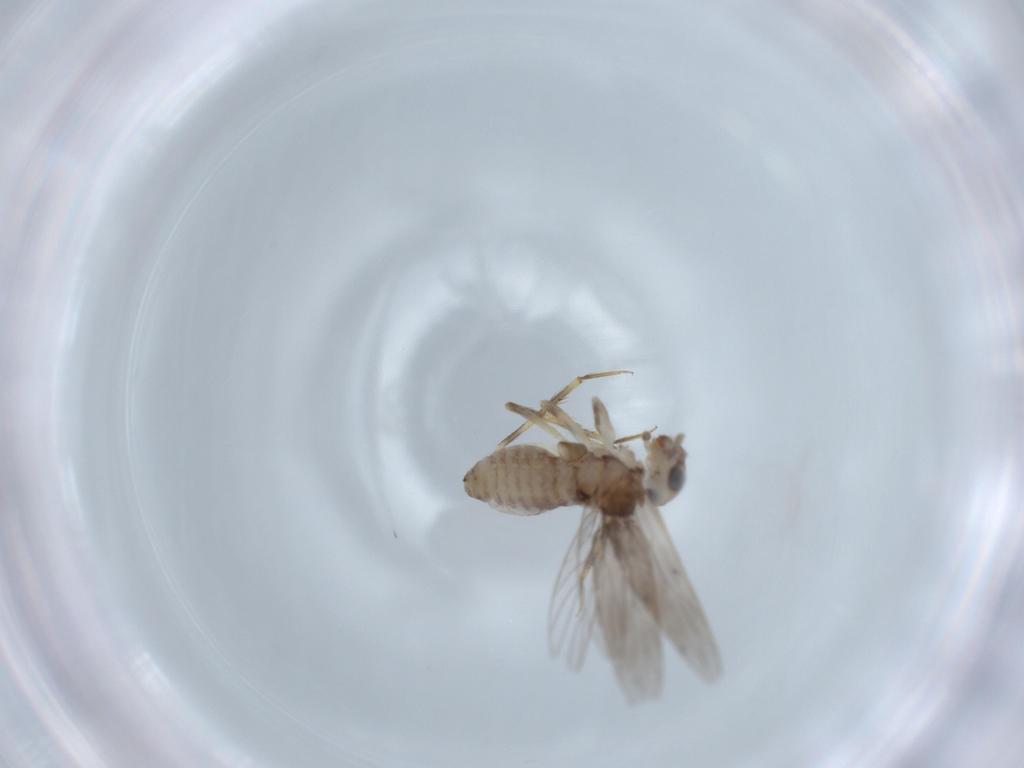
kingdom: Animalia
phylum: Arthropoda
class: Insecta
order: Psocodea
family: Lepidopsocidae
